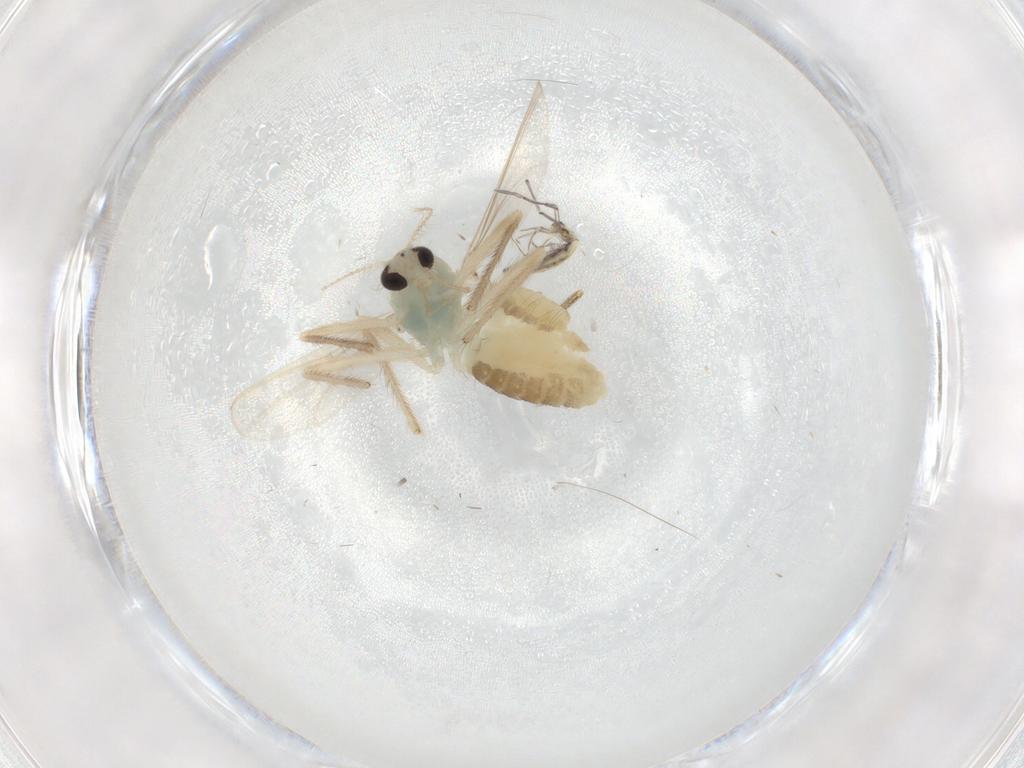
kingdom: Animalia
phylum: Arthropoda
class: Insecta
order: Diptera
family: Chironomidae
